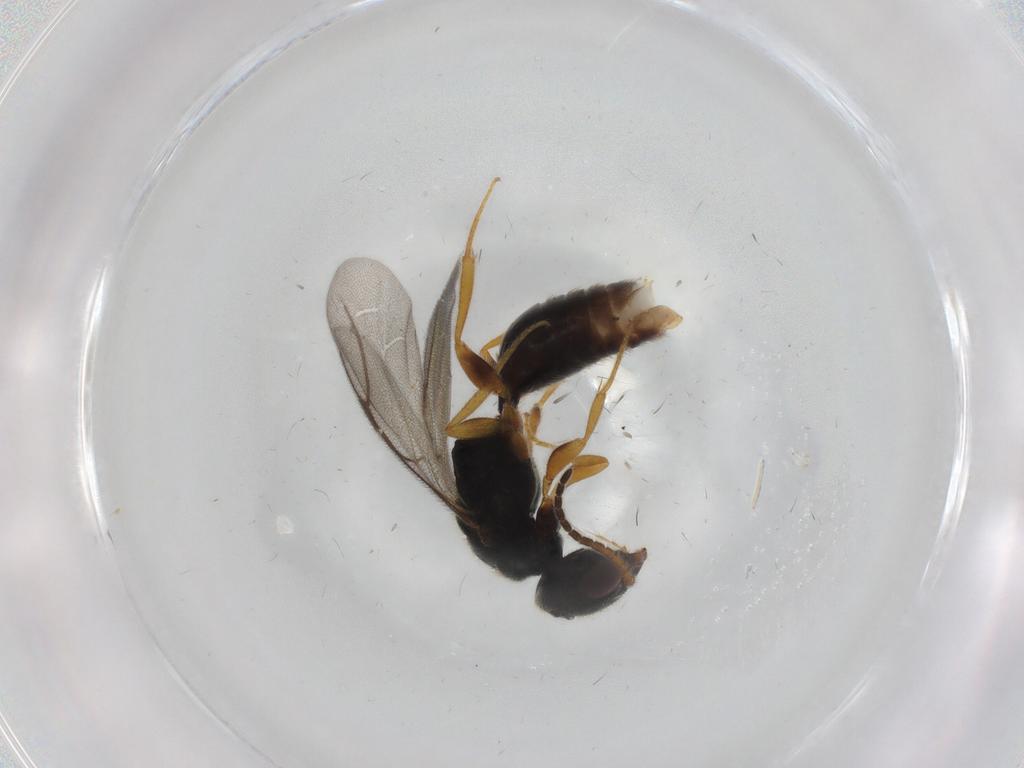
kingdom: Animalia
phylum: Arthropoda
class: Insecta
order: Hymenoptera
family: Bethylidae
